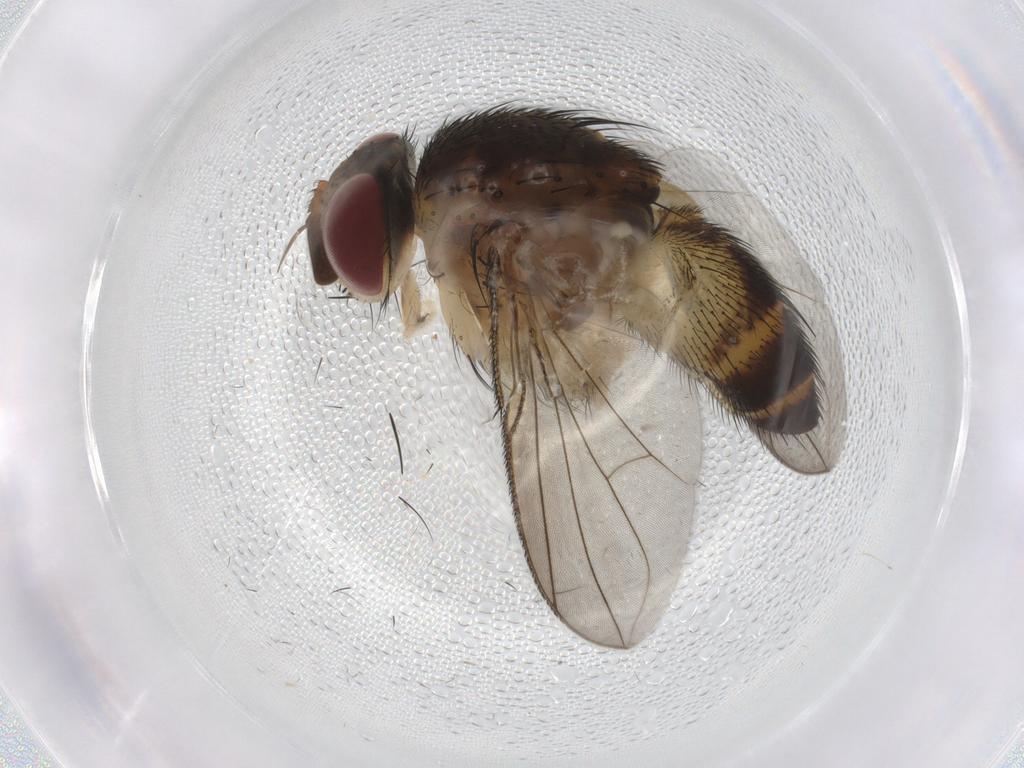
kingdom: Animalia
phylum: Arthropoda
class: Insecta
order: Diptera
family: Tachinidae
